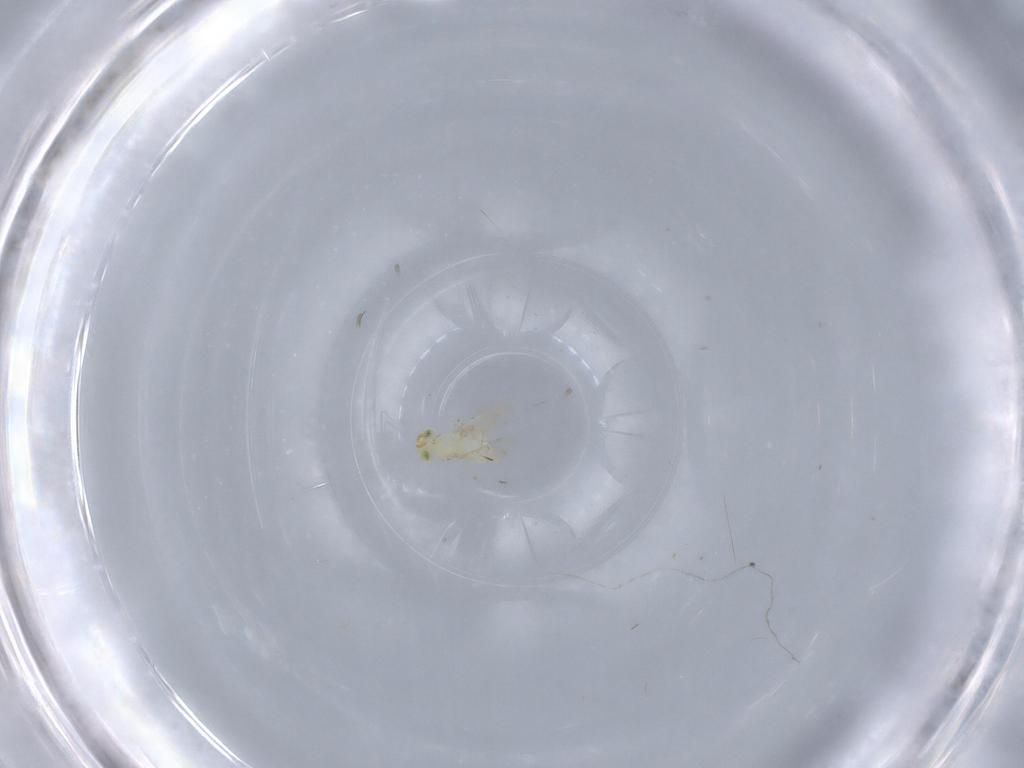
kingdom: Animalia
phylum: Arthropoda
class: Insecta
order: Hymenoptera
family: Aphelinidae
